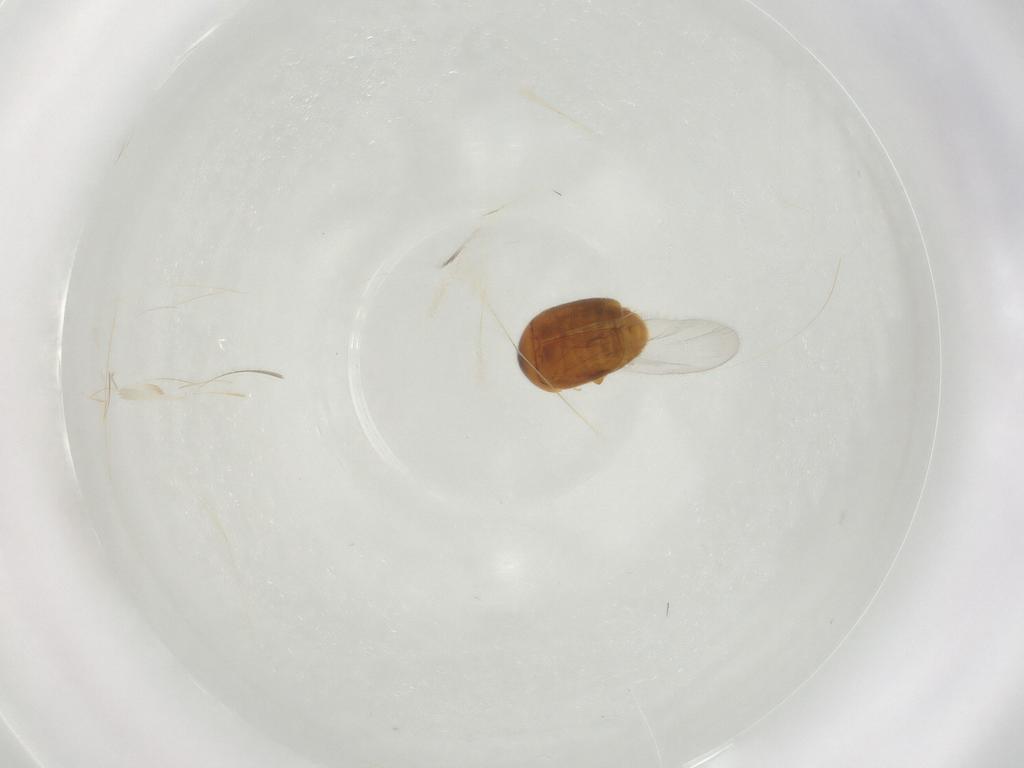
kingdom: Animalia
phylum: Arthropoda
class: Insecta
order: Coleoptera
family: Corylophidae
